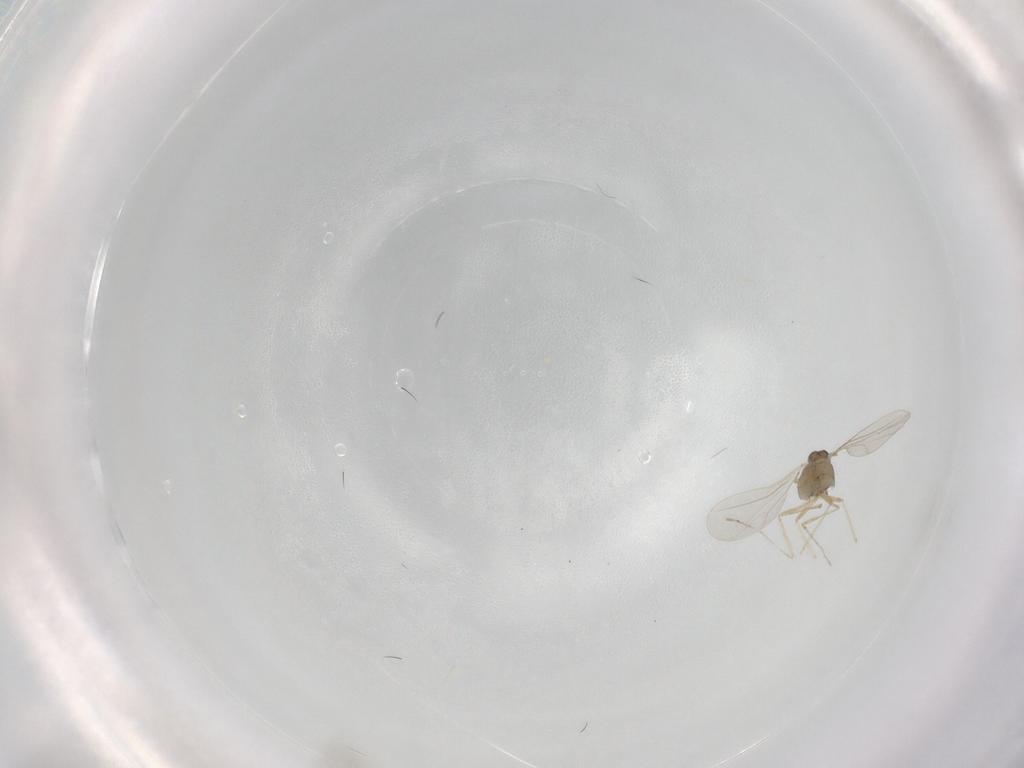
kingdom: Animalia
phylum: Arthropoda
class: Insecta
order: Diptera
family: Cecidomyiidae
